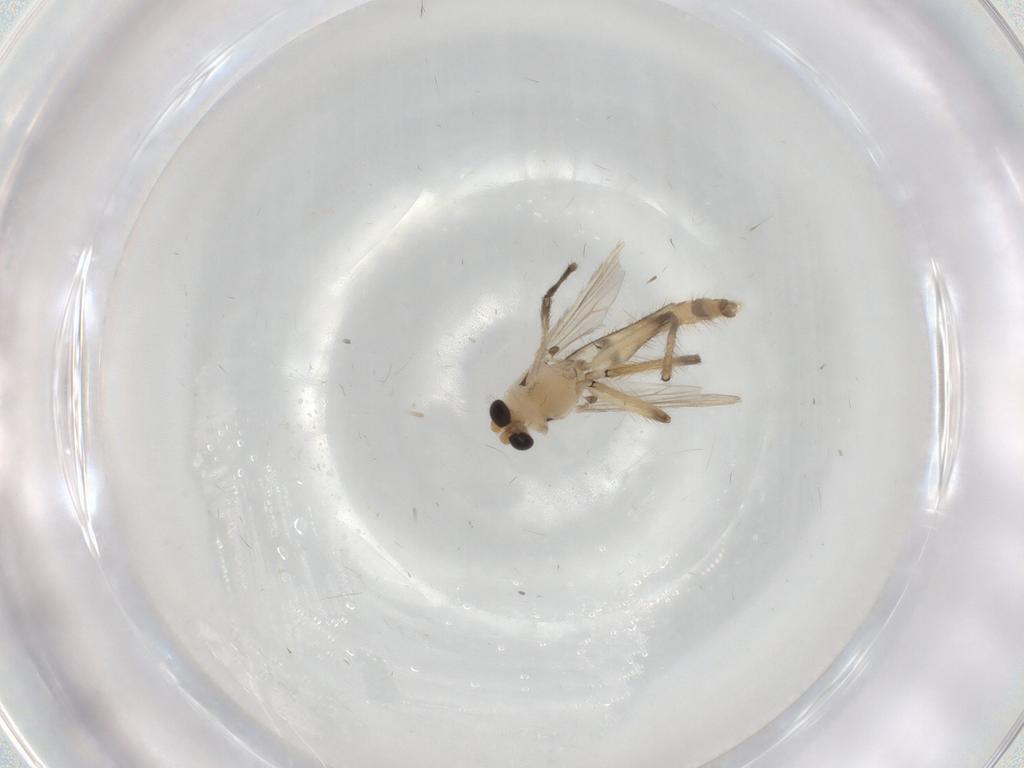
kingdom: Animalia
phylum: Arthropoda
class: Insecta
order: Diptera
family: Chironomidae
